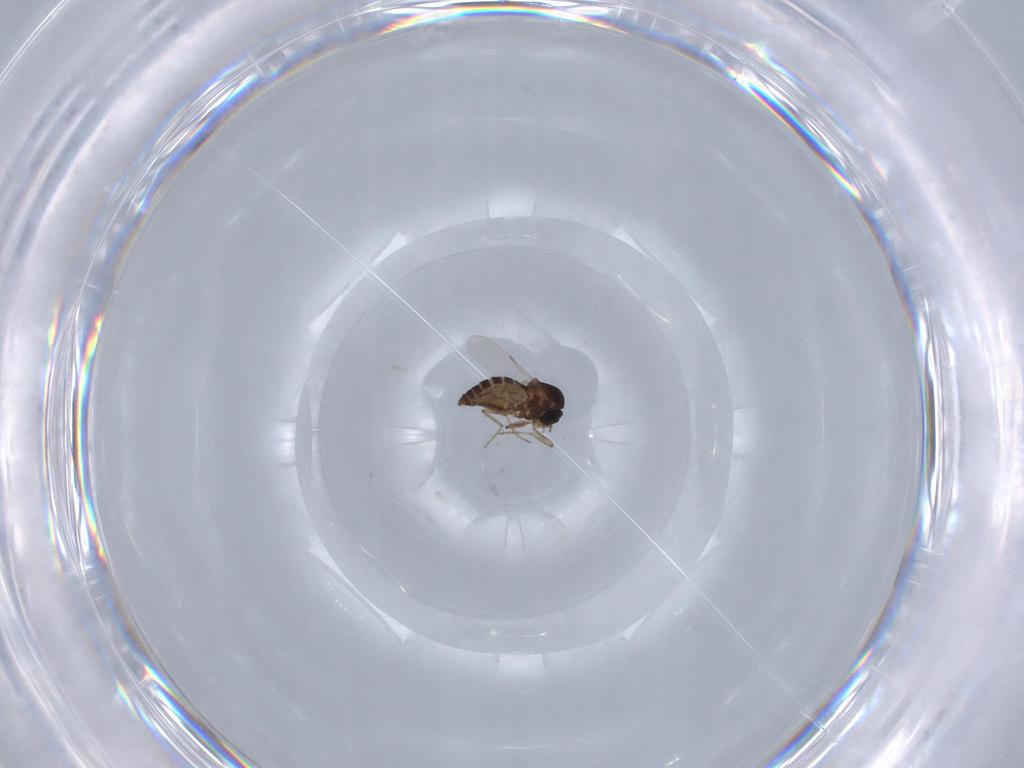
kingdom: Animalia
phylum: Arthropoda
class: Insecta
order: Diptera
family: Ceratopogonidae
